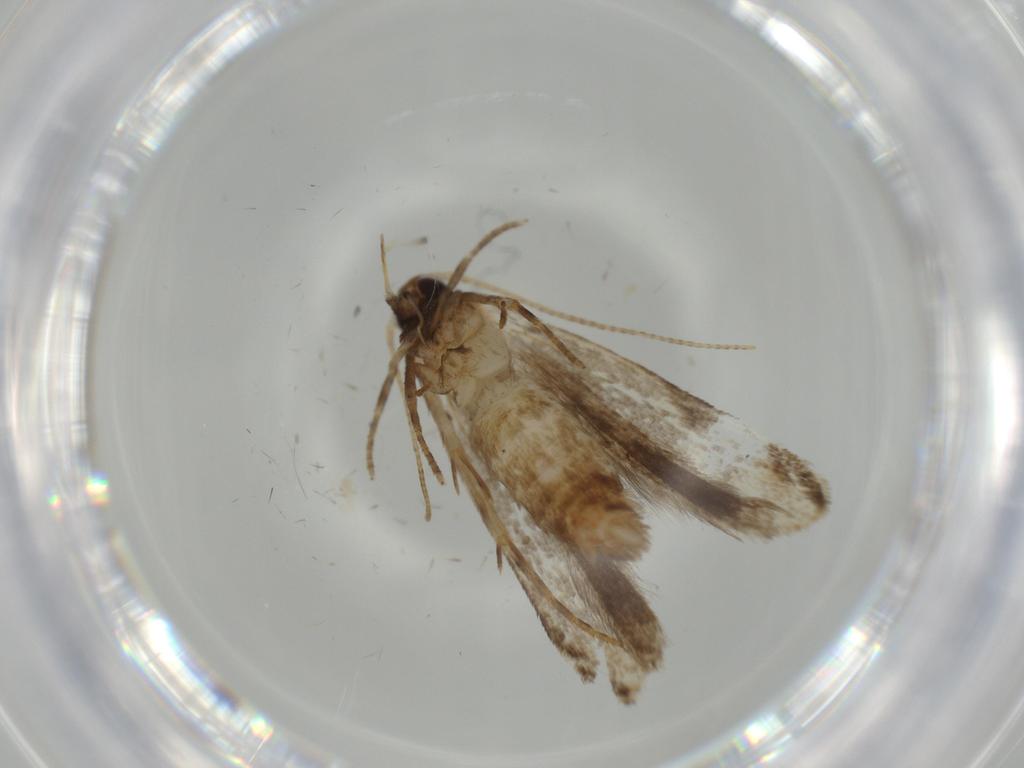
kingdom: Animalia
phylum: Arthropoda
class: Insecta
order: Diptera
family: Cecidomyiidae
